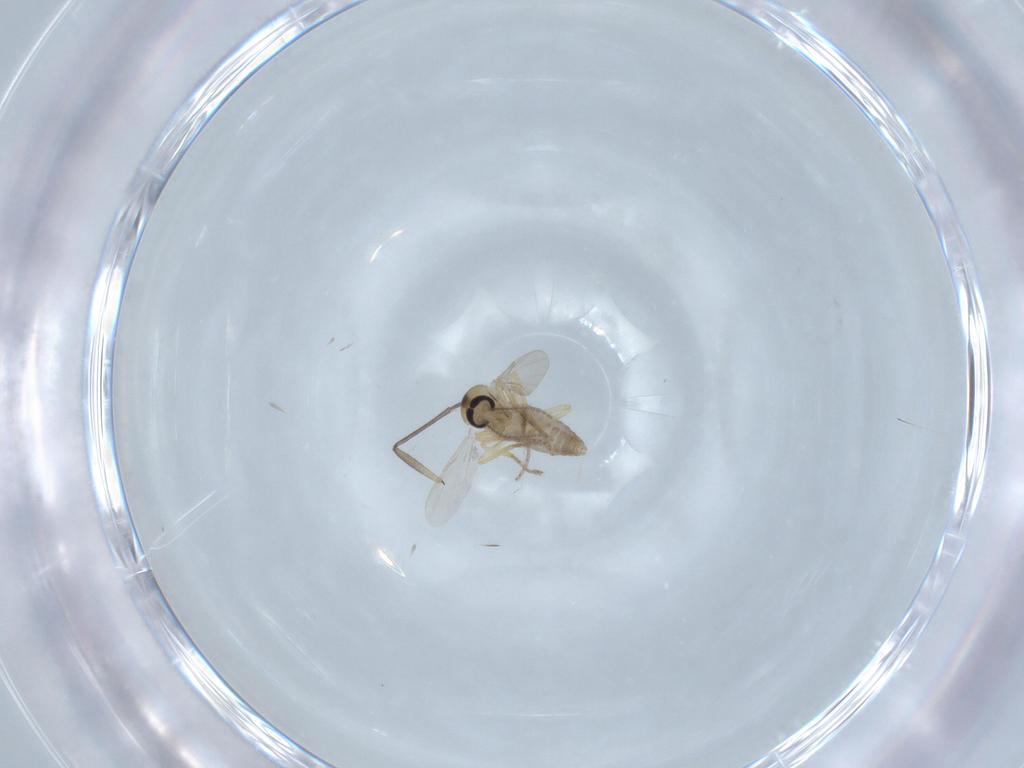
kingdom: Animalia
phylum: Arthropoda
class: Insecta
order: Diptera
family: Ceratopogonidae
